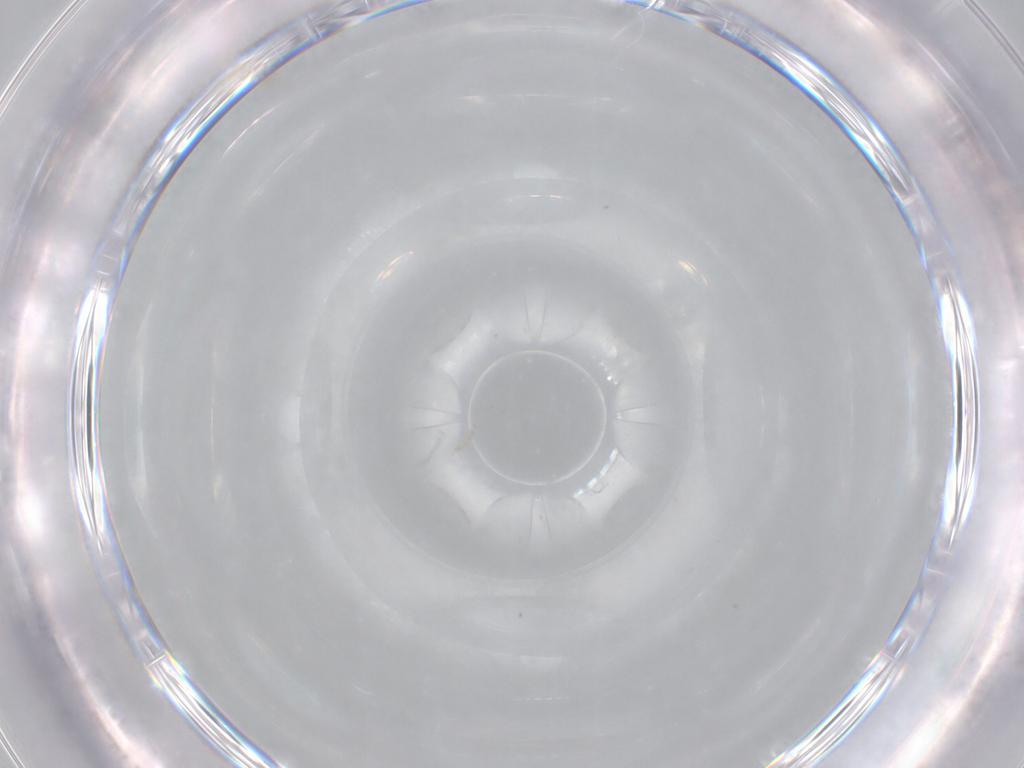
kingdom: Animalia
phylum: Arthropoda
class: Insecta
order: Diptera
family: Chironomidae
